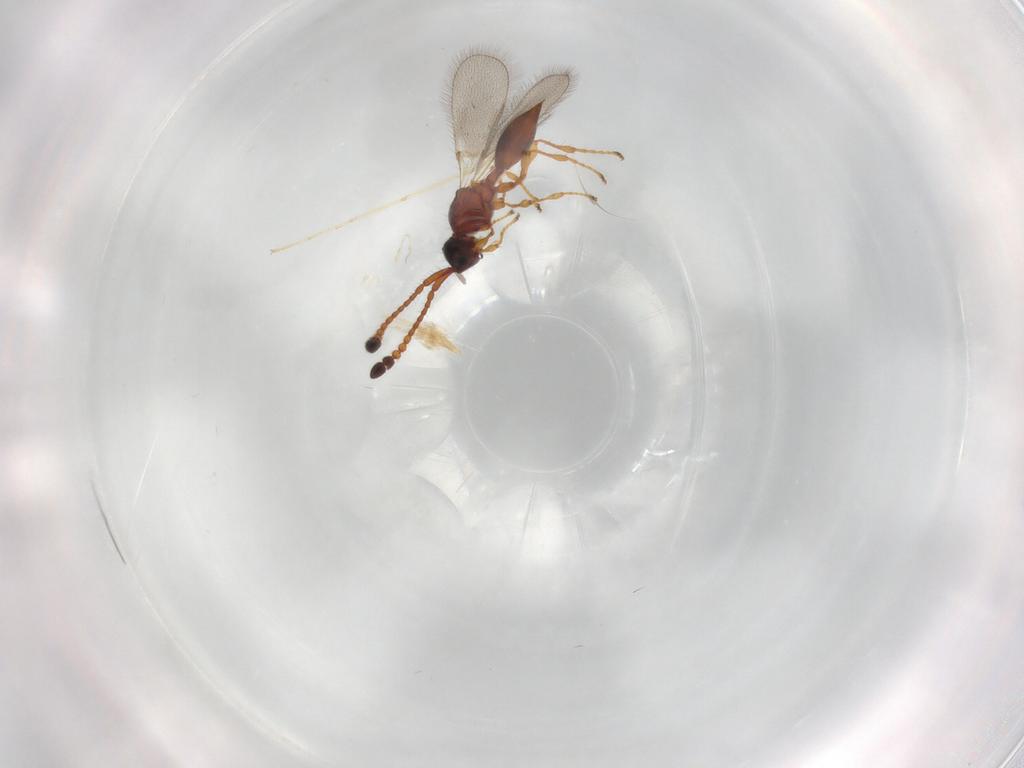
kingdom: Animalia
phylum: Arthropoda
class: Insecta
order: Hymenoptera
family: Diapriidae
